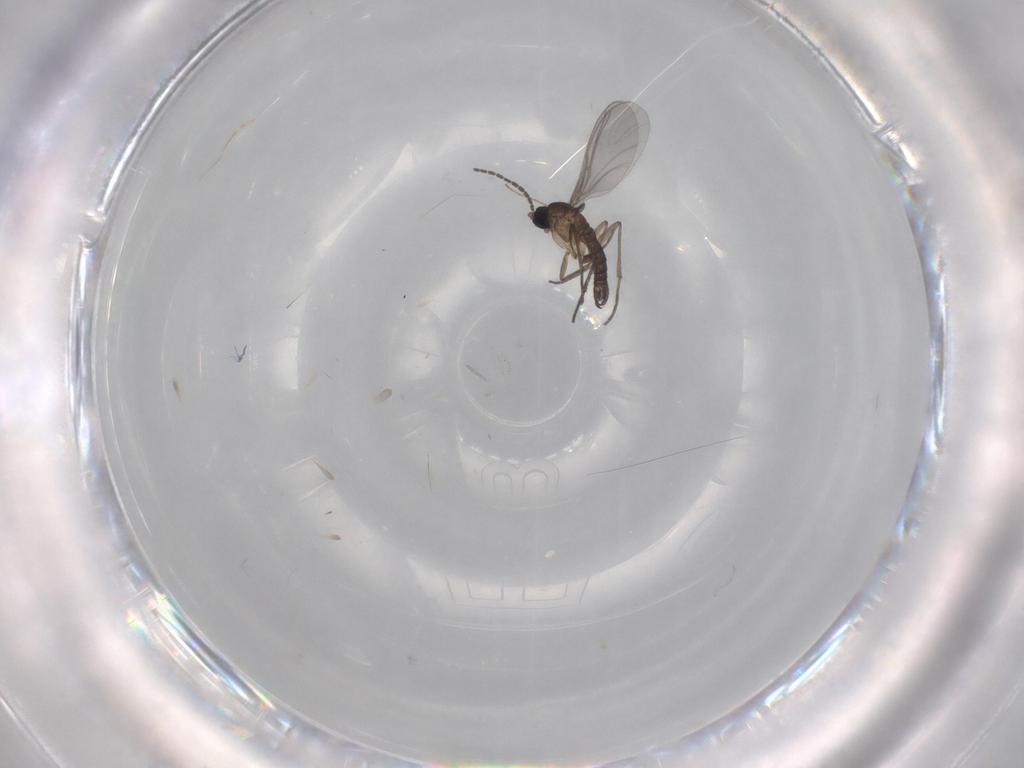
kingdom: Animalia
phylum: Arthropoda
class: Insecta
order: Diptera
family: Chironomidae
